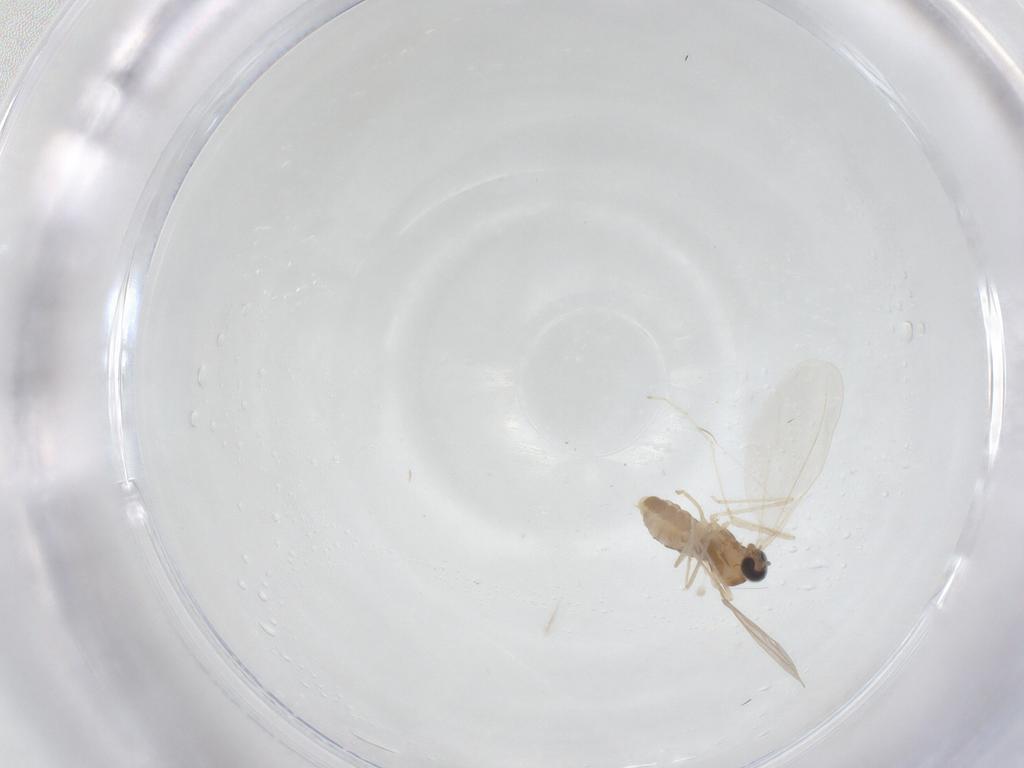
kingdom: Animalia
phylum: Arthropoda
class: Insecta
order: Diptera
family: Cecidomyiidae
